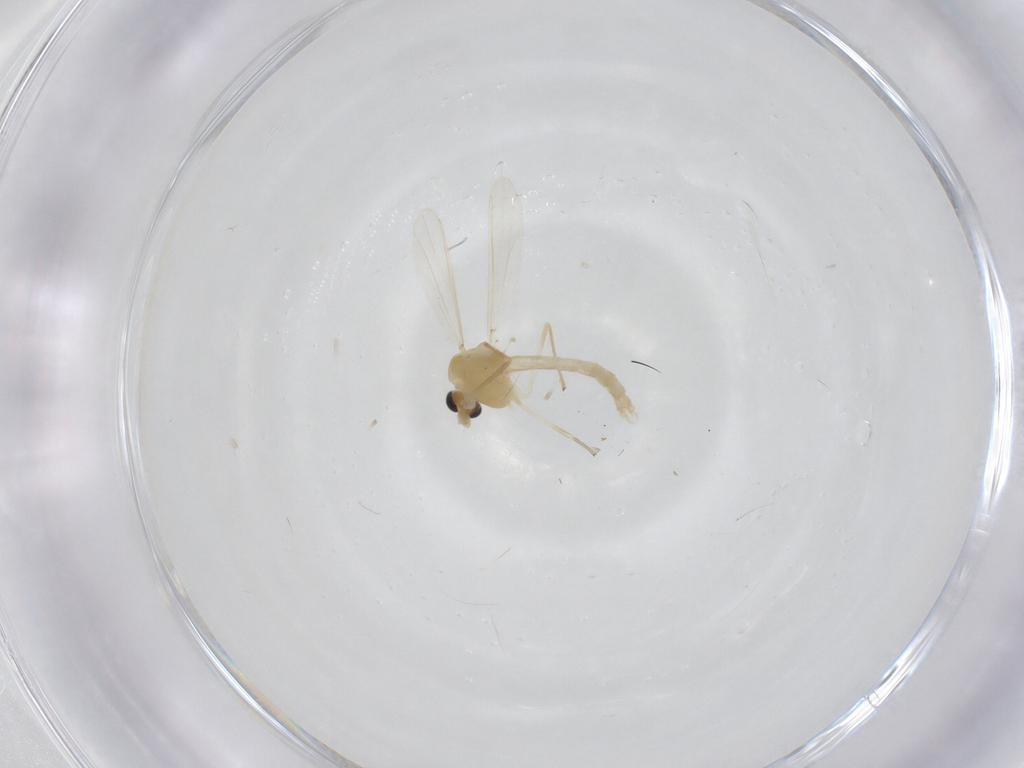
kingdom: Animalia
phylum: Arthropoda
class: Insecta
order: Diptera
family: Chironomidae
